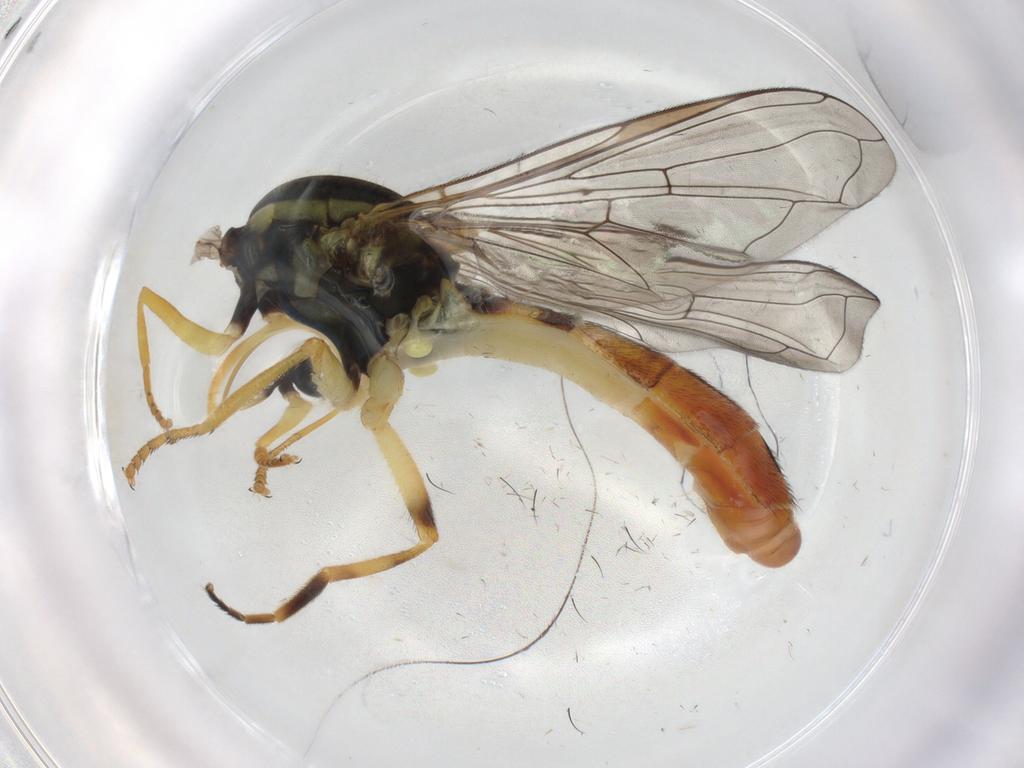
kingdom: Animalia
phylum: Arthropoda
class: Insecta
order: Diptera
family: Syrphidae
